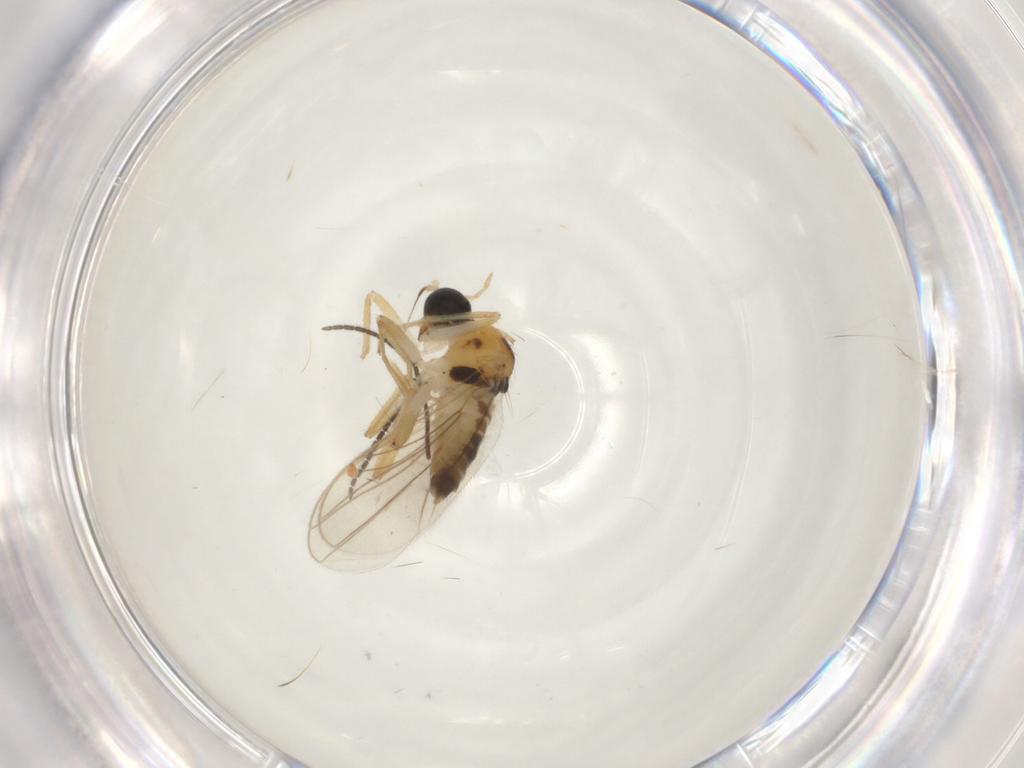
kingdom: Animalia
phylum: Arthropoda
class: Insecta
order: Diptera
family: Hybotidae
